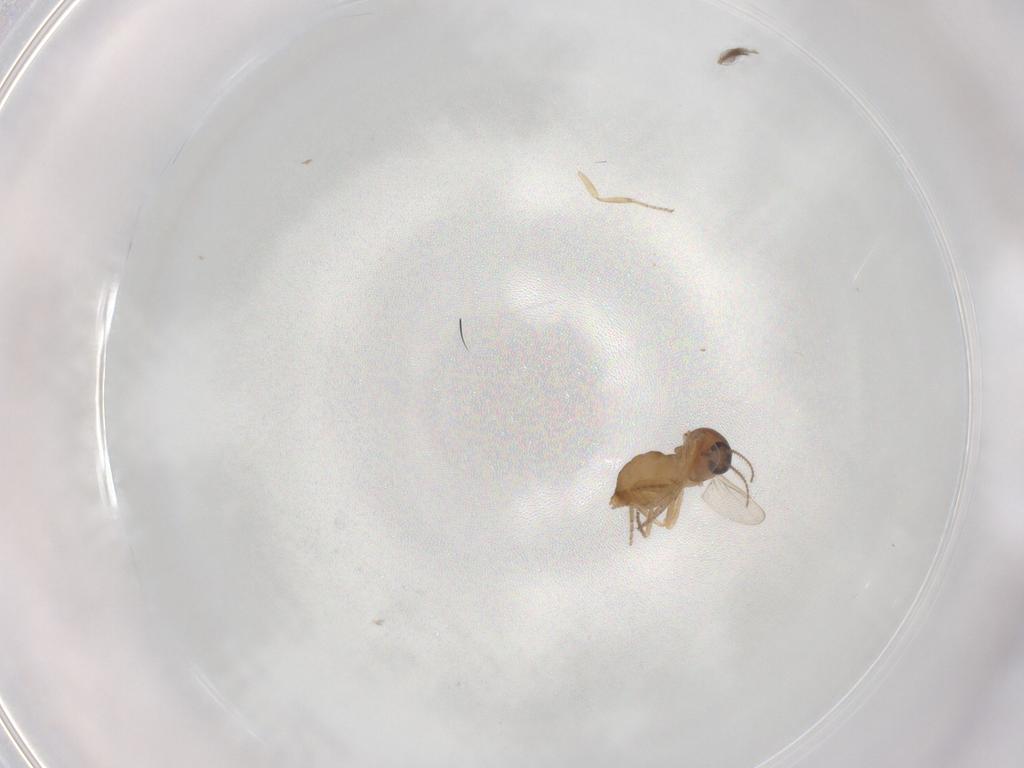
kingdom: Animalia
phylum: Arthropoda
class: Insecta
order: Diptera
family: Ceratopogonidae
